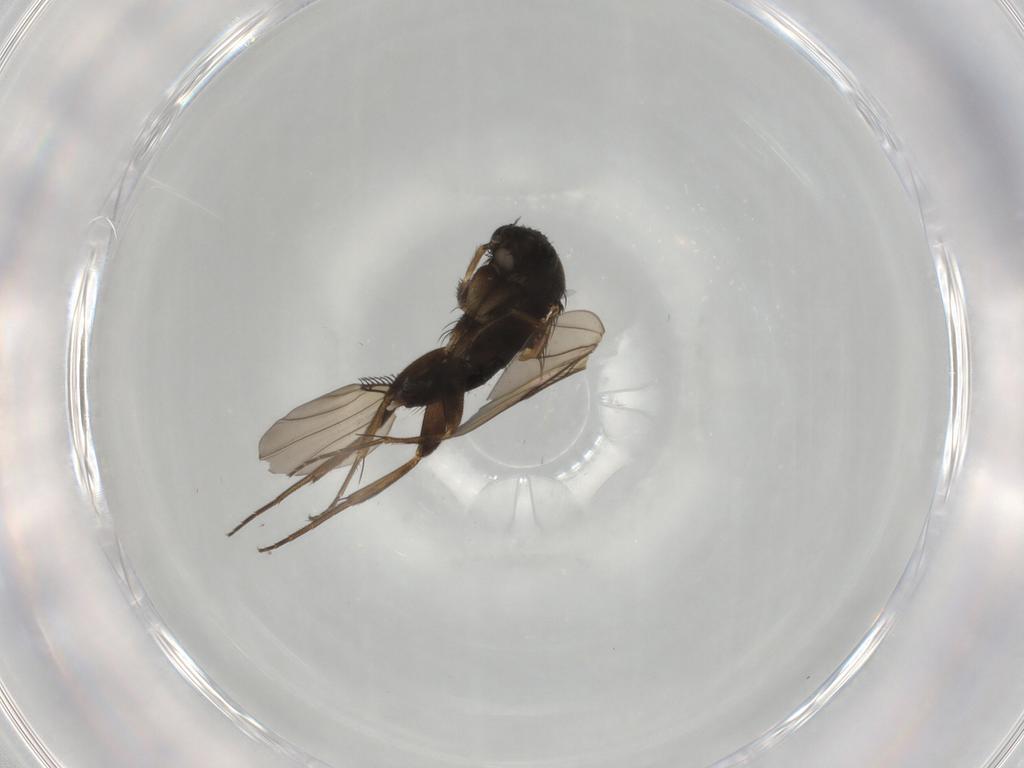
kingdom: Animalia
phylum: Arthropoda
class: Insecta
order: Diptera
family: Phoridae
